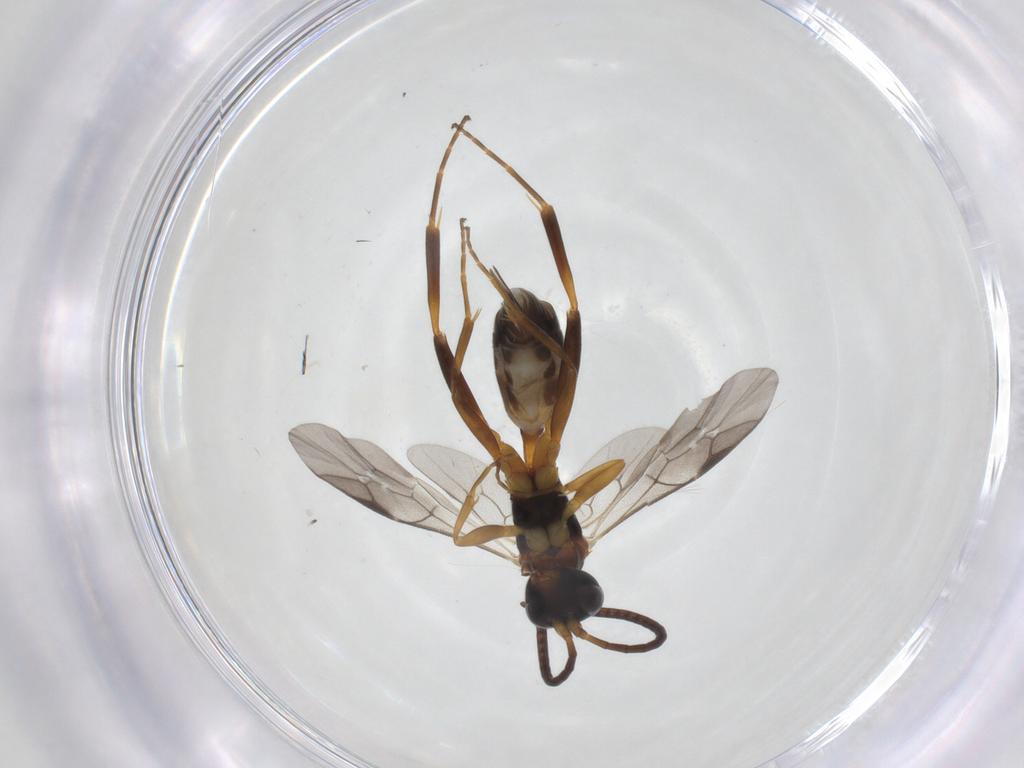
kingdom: Animalia
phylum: Arthropoda
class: Insecta
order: Hymenoptera
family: Ichneumonidae
